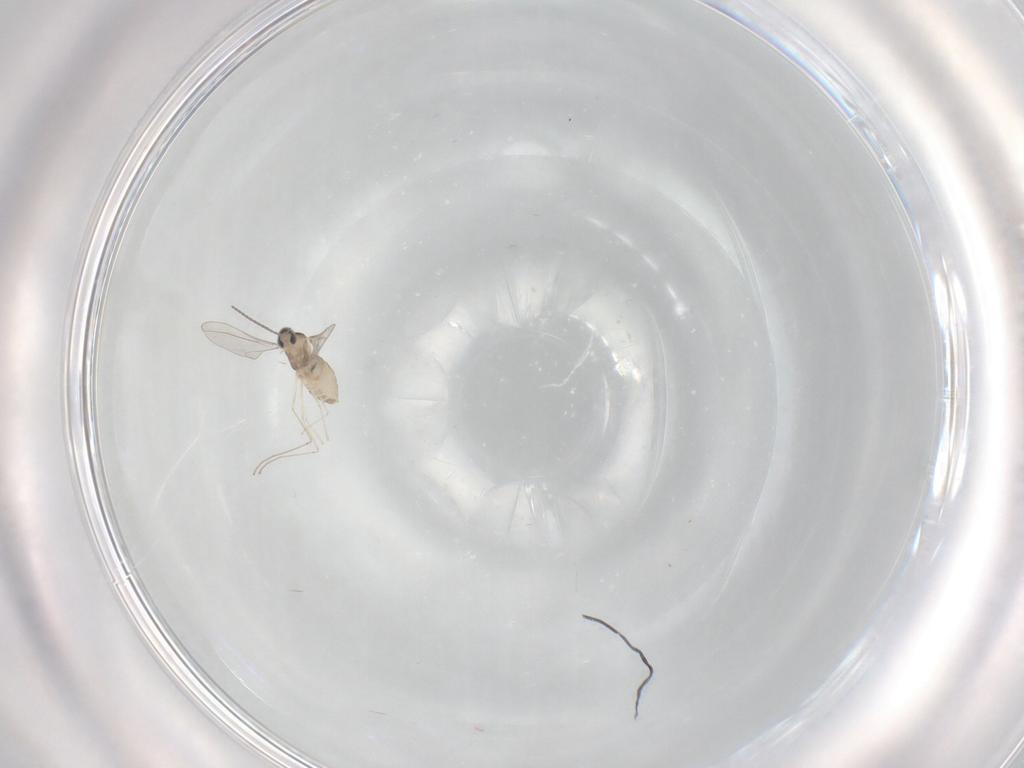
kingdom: Animalia
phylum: Arthropoda
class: Insecta
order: Diptera
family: Cecidomyiidae
